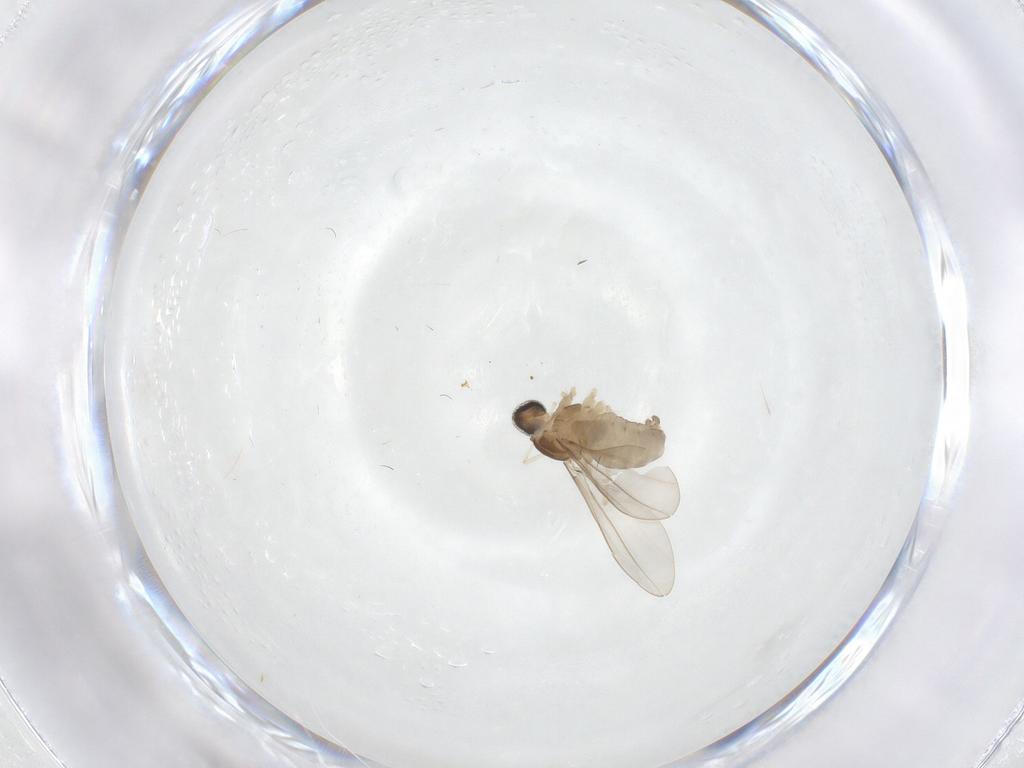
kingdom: Animalia
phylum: Arthropoda
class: Insecta
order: Diptera
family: Cecidomyiidae
